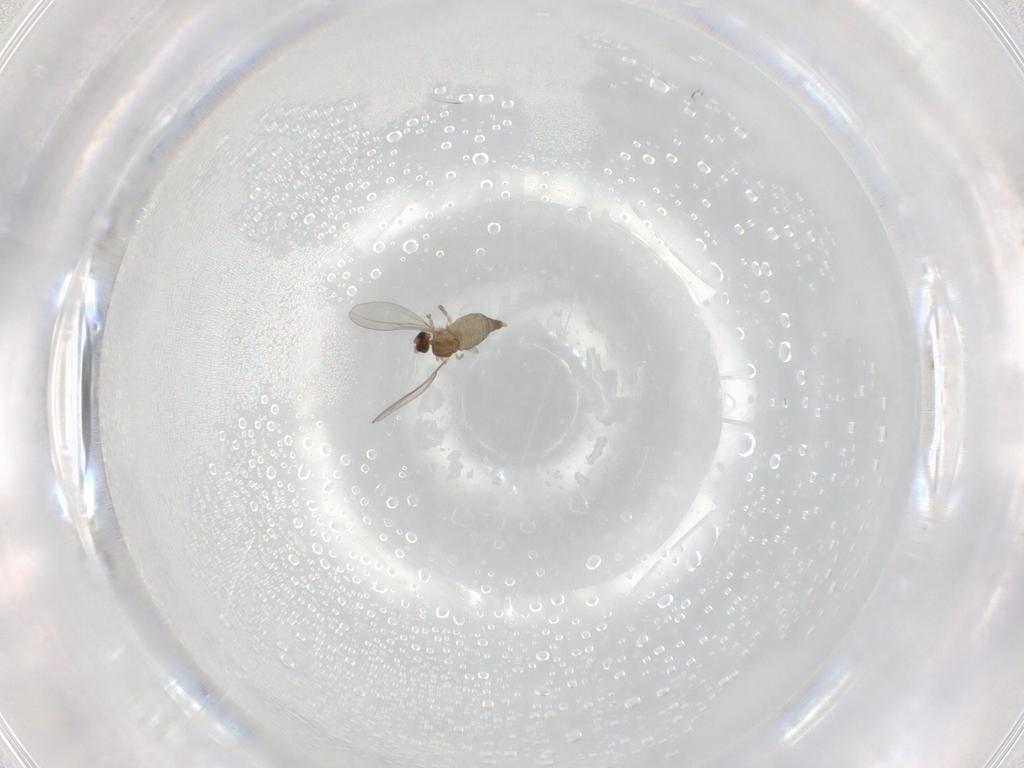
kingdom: Animalia
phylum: Arthropoda
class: Insecta
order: Diptera
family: Cecidomyiidae
